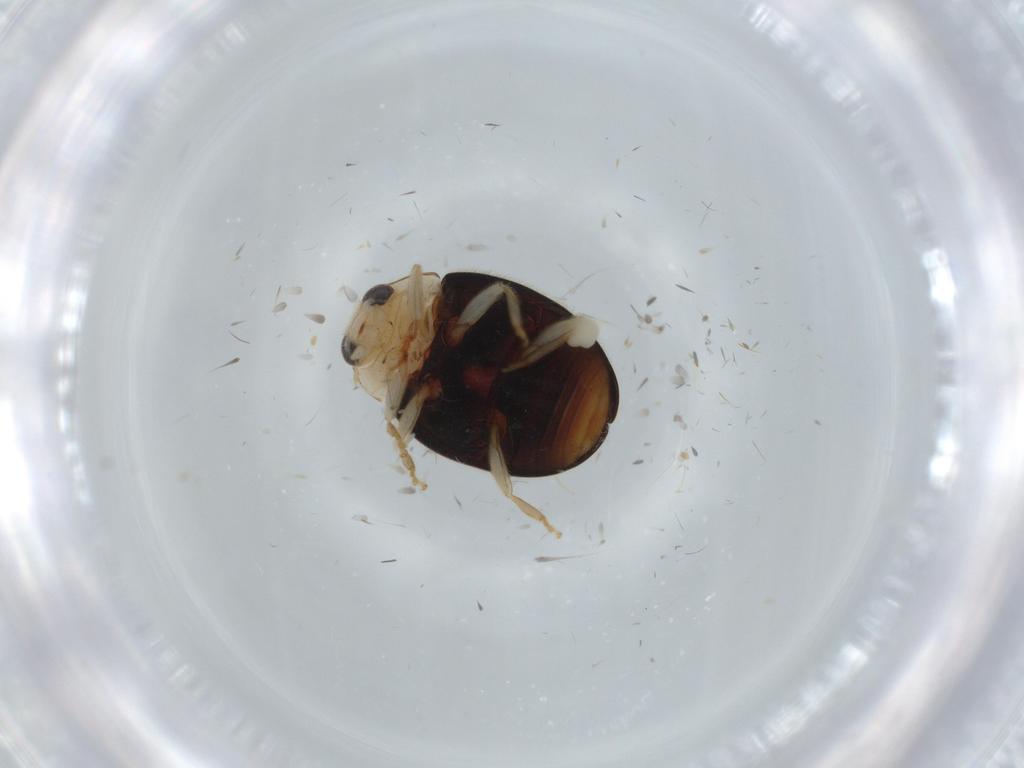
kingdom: Animalia
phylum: Arthropoda
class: Insecta
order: Coleoptera
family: Coccinellidae
